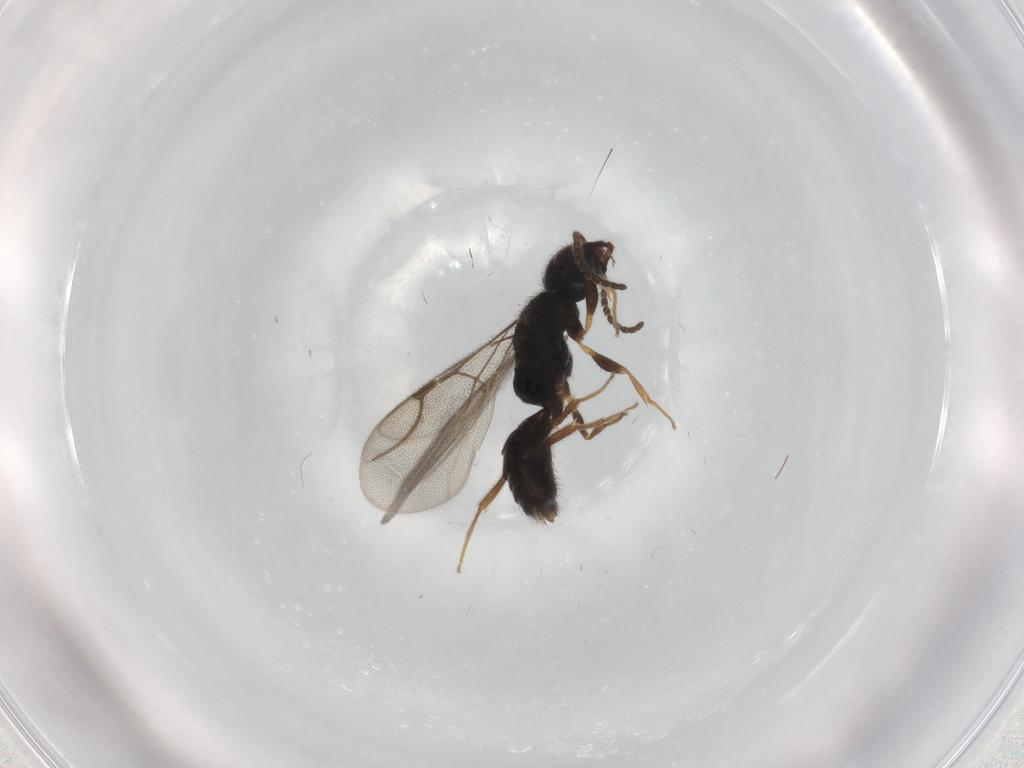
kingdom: Animalia
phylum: Arthropoda
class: Insecta
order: Hymenoptera
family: Bethylidae
